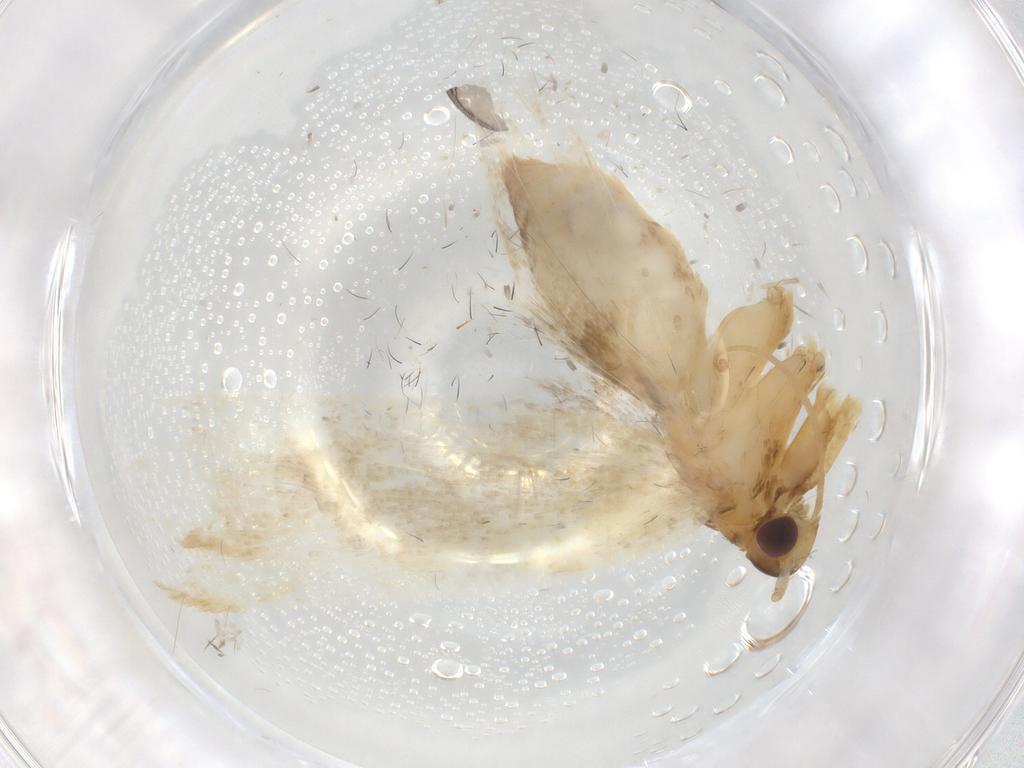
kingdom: Animalia
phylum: Arthropoda
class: Insecta
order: Lepidoptera
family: Lecithoceridae
